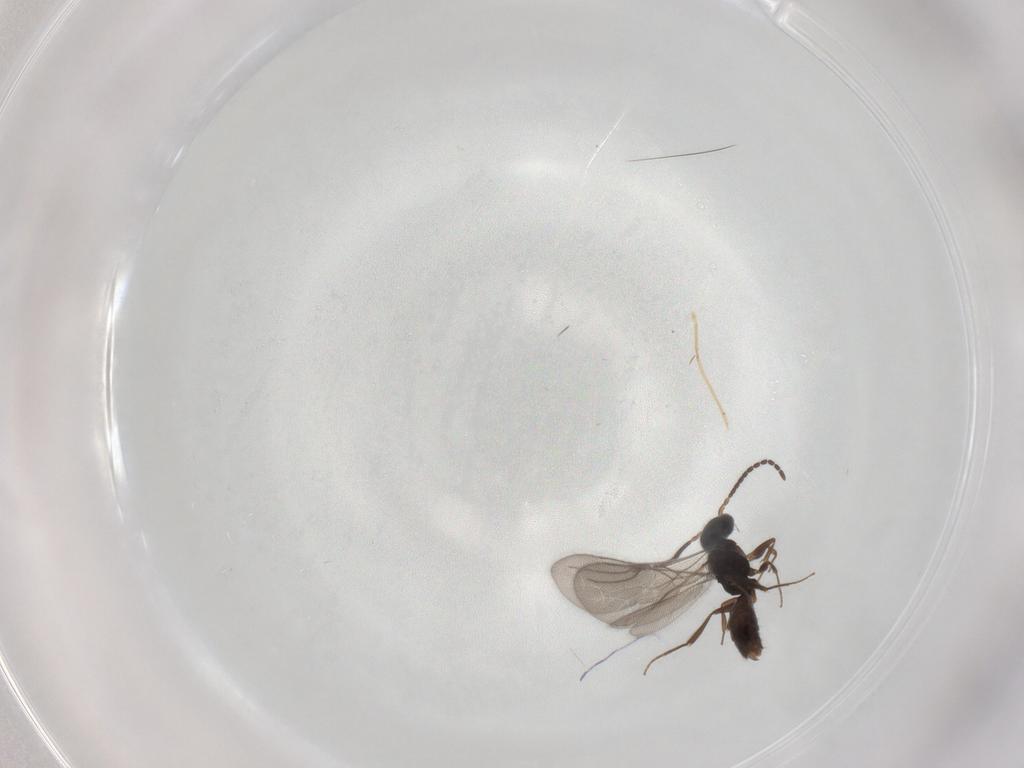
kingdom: Animalia
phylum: Arthropoda
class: Insecta
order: Hymenoptera
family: Bethylidae
